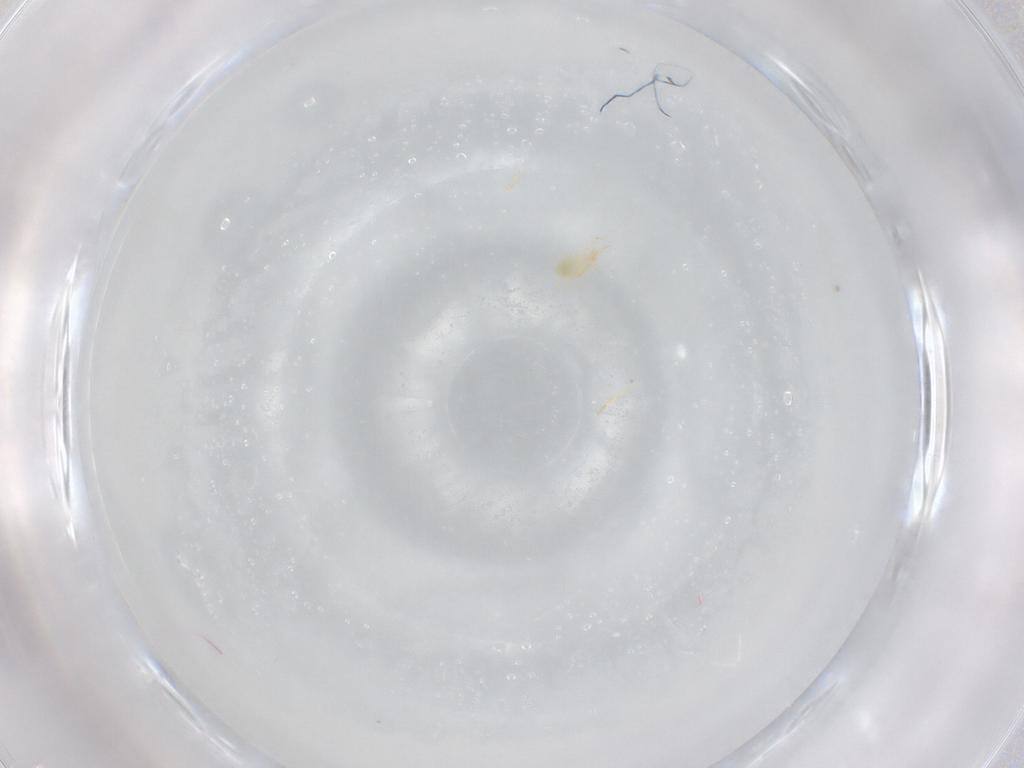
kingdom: Animalia
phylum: Arthropoda
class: Arachnida
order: Trombidiformes
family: Cunaxidae
